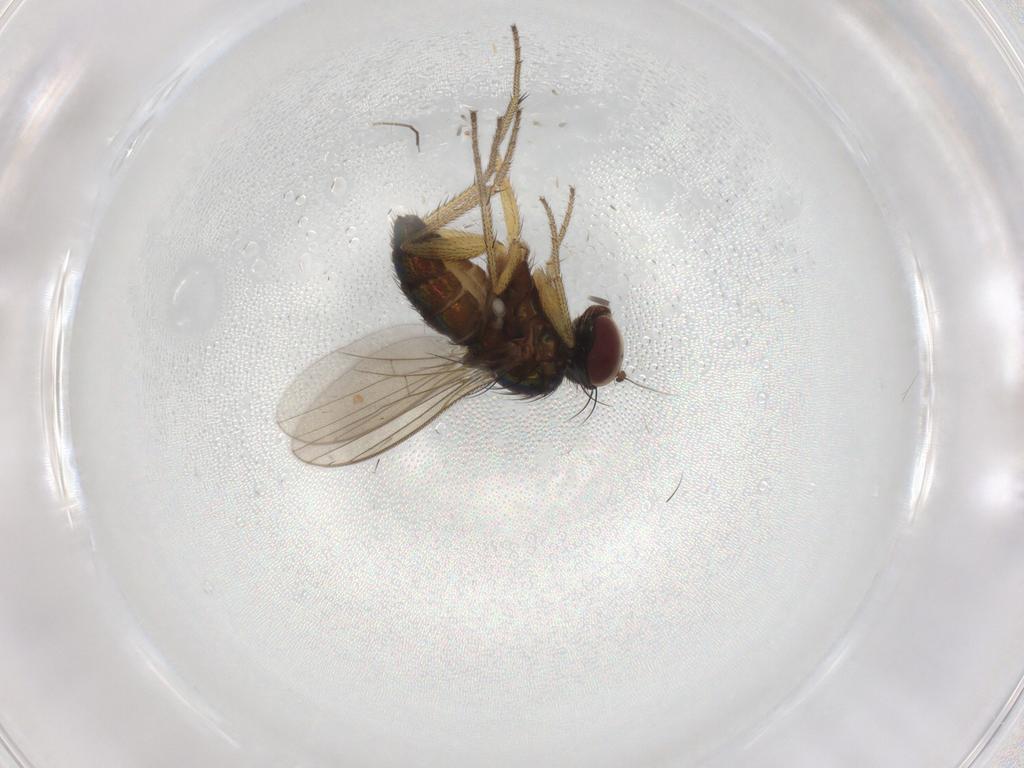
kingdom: Animalia
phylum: Arthropoda
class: Insecta
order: Diptera
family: Dolichopodidae
